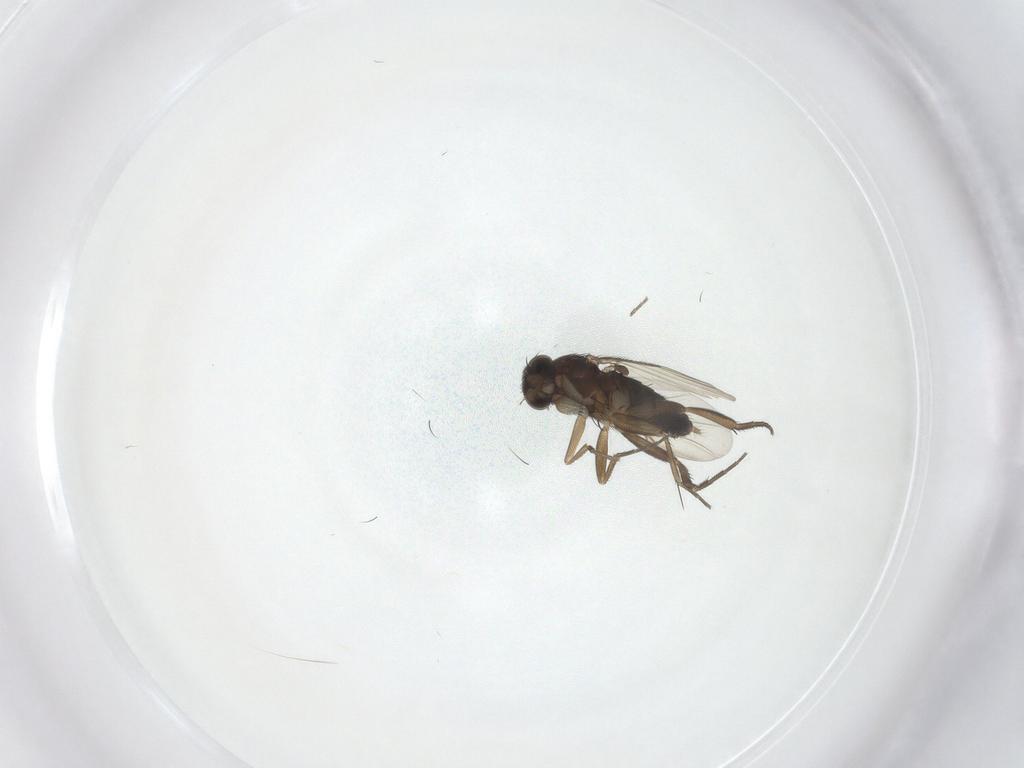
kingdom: Animalia
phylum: Arthropoda
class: Insecta
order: Diptera
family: Phoridae
